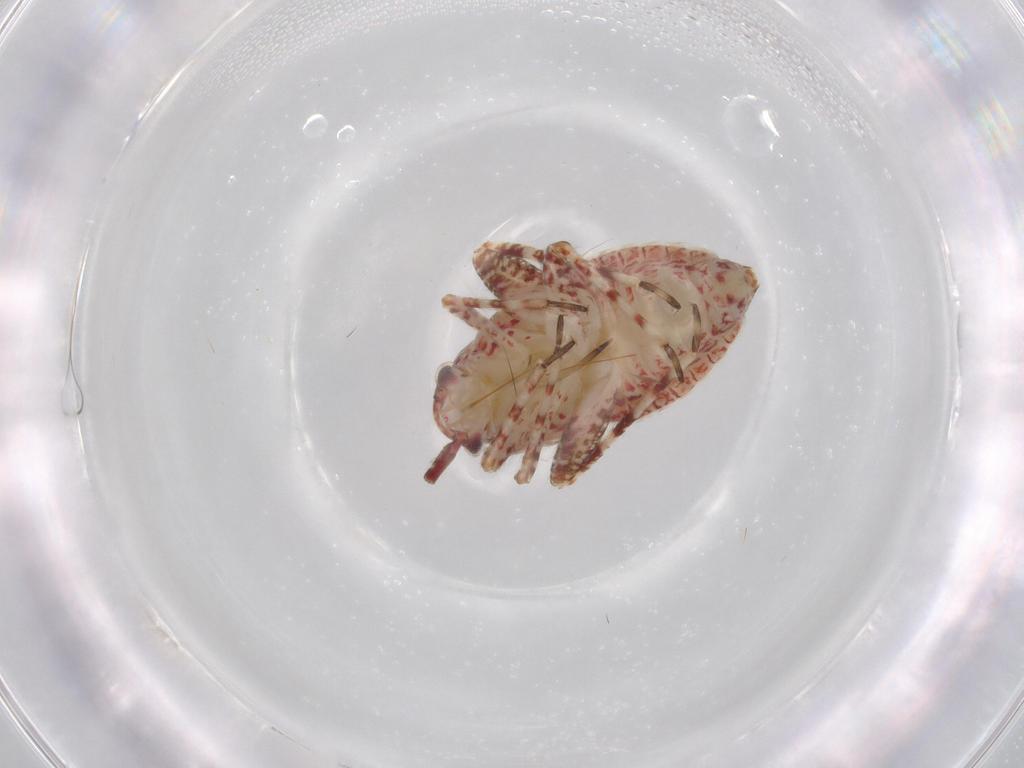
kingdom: Animalia
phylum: Arthropoda
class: Insecta
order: Hemiptera
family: Miridae
